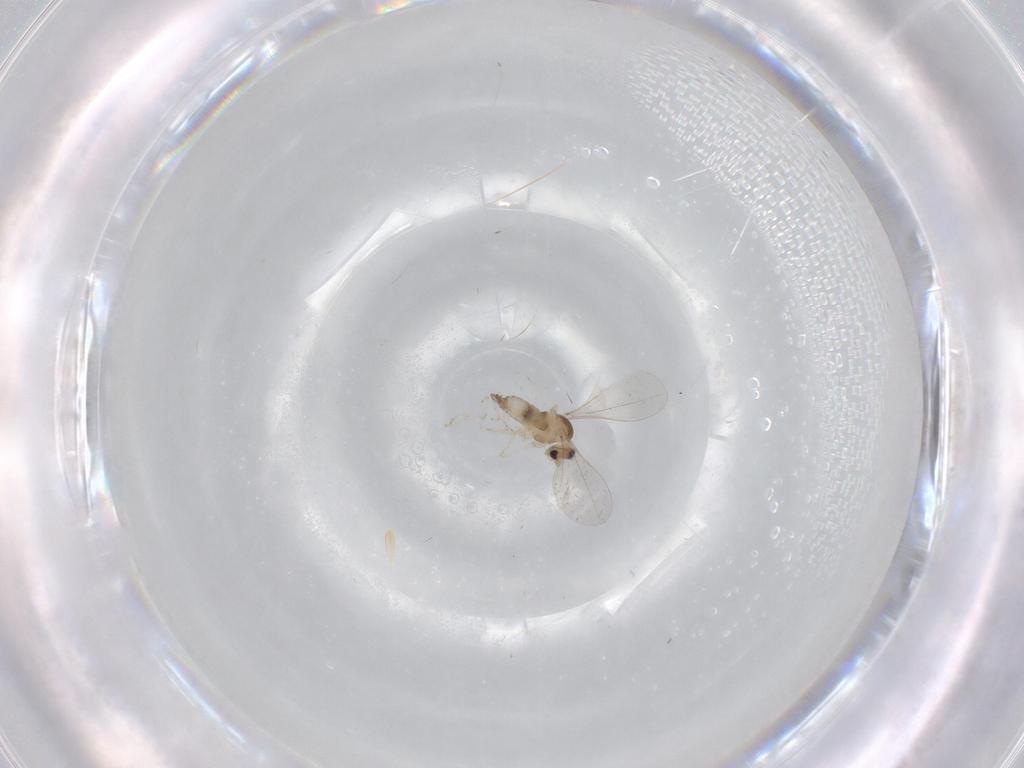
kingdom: Animalia
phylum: Arthropoda
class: Insecta
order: Diptera
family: Cecidomyiidae
